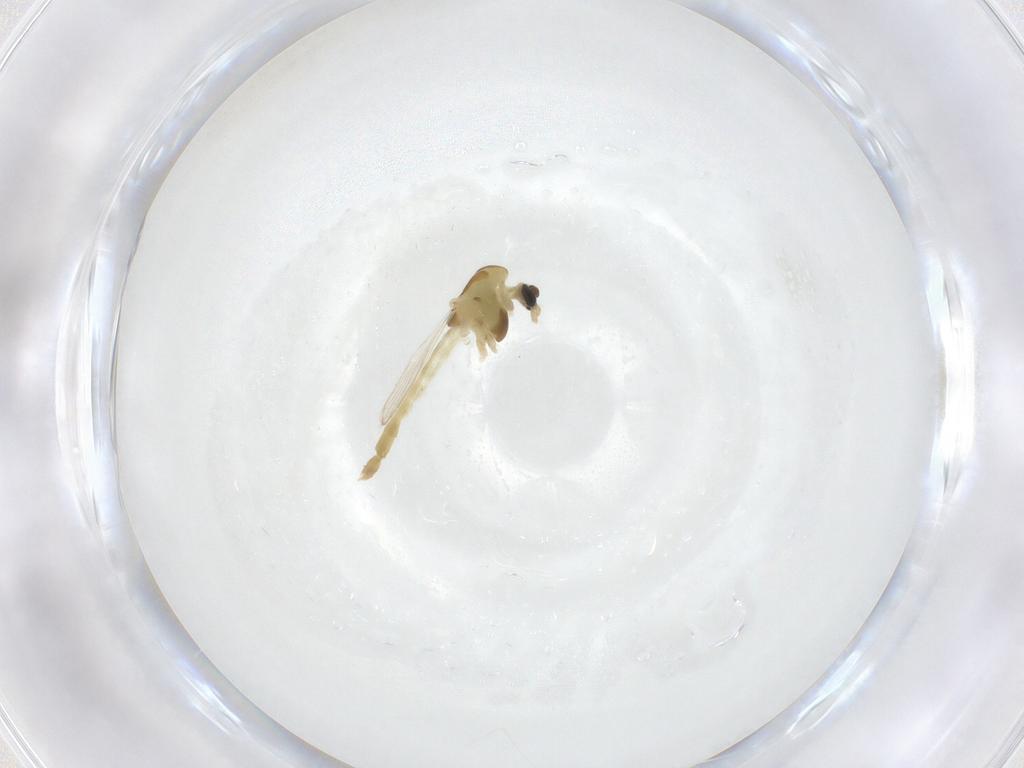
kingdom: Animalia
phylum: Arthropoda
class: Insecta
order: Diptera
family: Chironomidae
